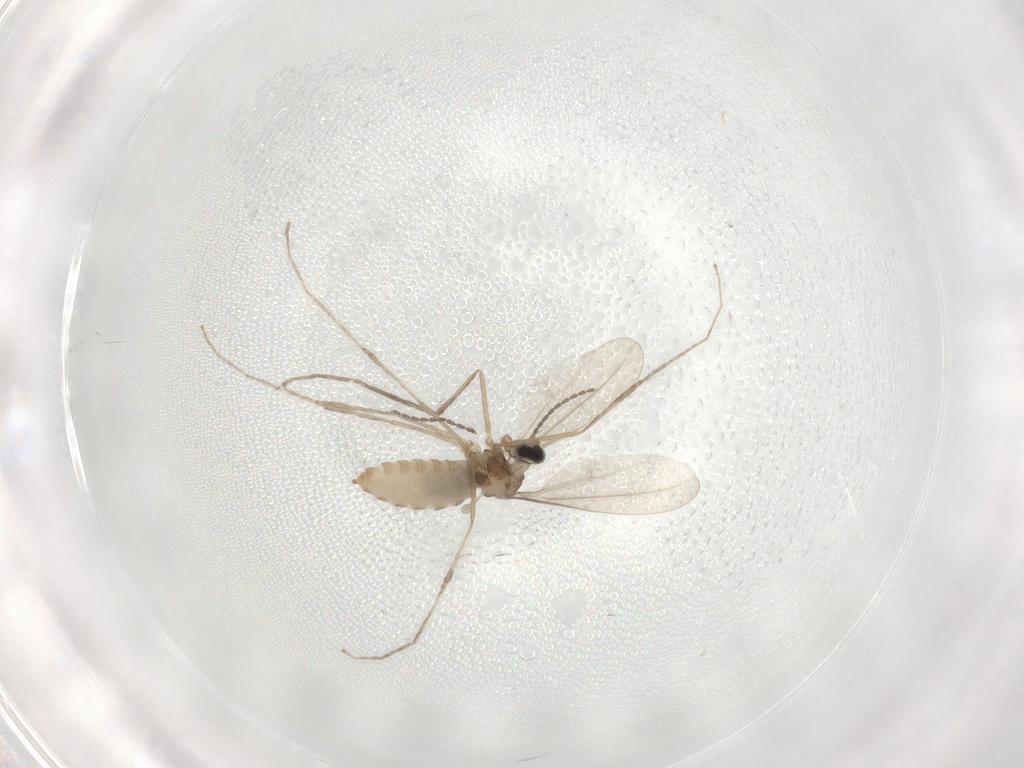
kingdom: Animalia
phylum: Arthropoda
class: Insecta
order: Diptera
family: Cecidomyiidae
